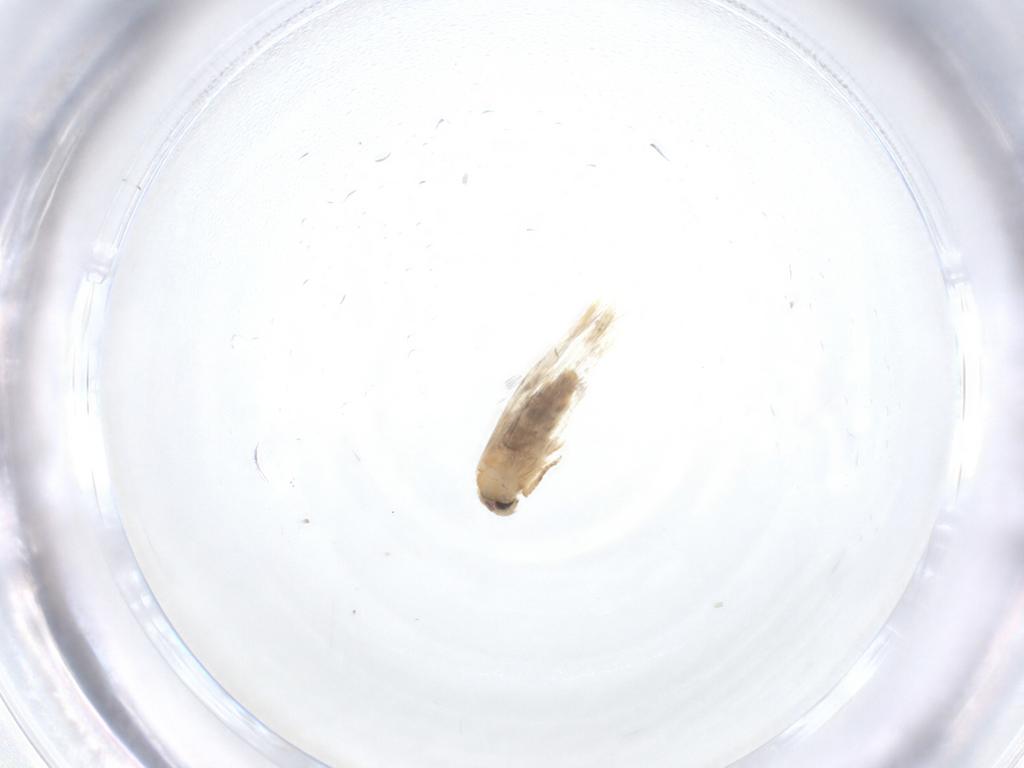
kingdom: Animalia
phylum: Arthropoda
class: Insecta
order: Lepidoptera
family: Nepticulidae
